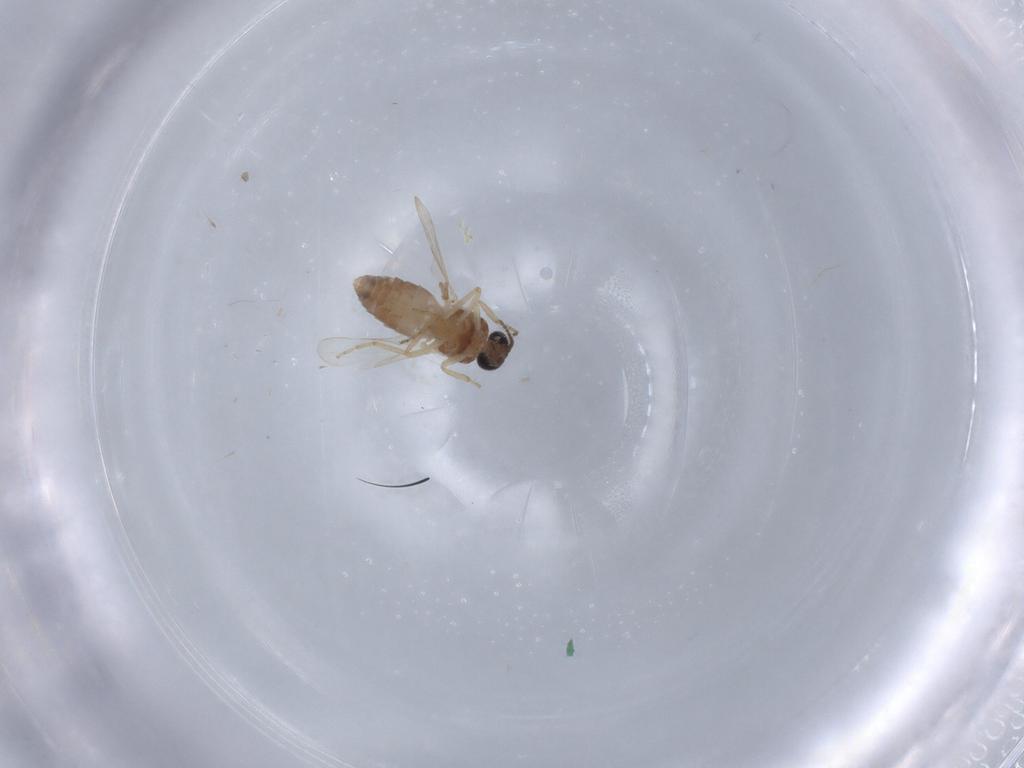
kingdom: Animalia
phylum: Arthropoda
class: Insecta
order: Diptera
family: Ceratopogonidae
